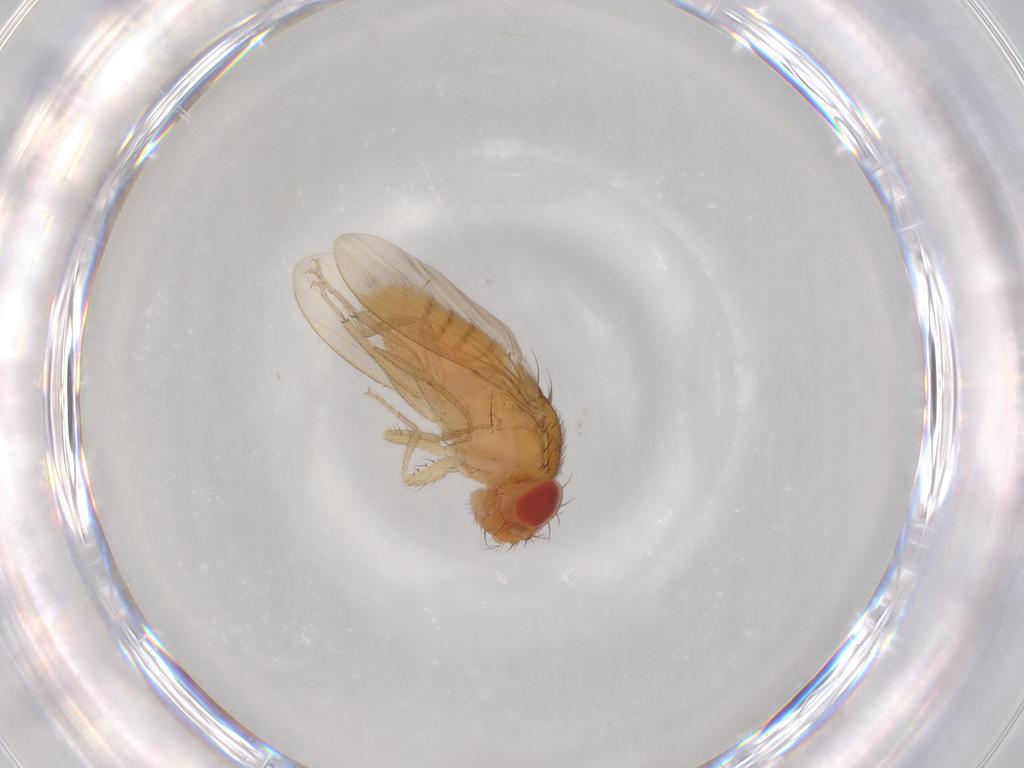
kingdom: Animalia
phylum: Arthropoda
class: Insecta
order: Diptera
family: Drosophilidae
